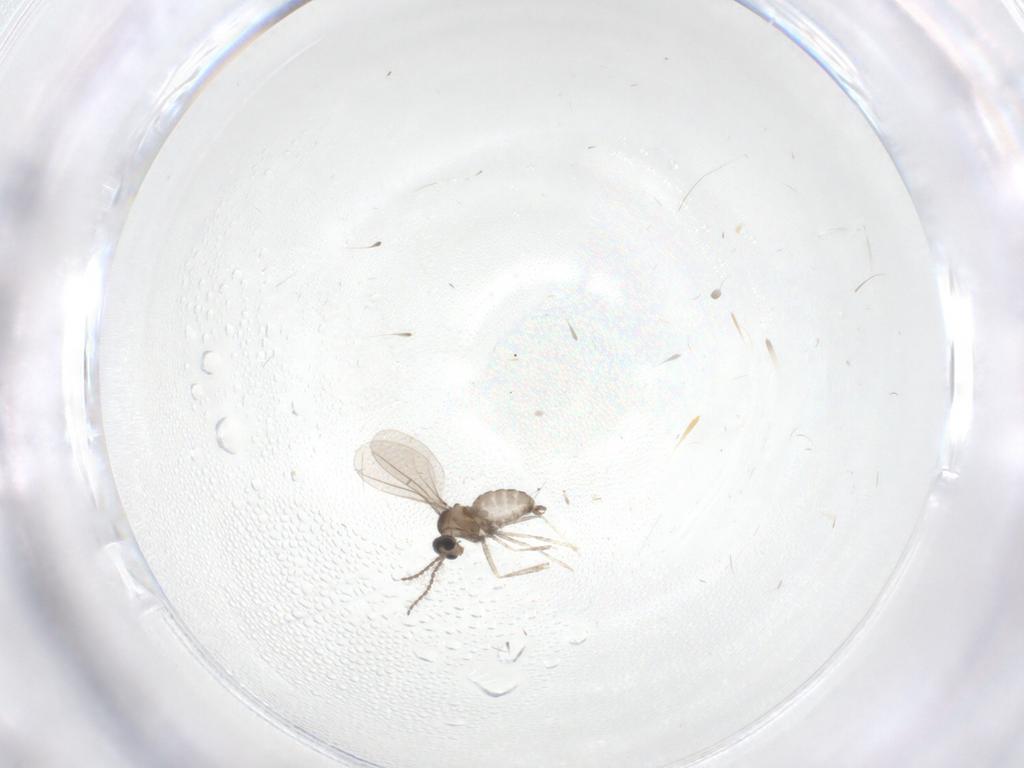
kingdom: Animalia
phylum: Arthropoda
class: Insecta
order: Diptera
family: Cecidomyiidae
